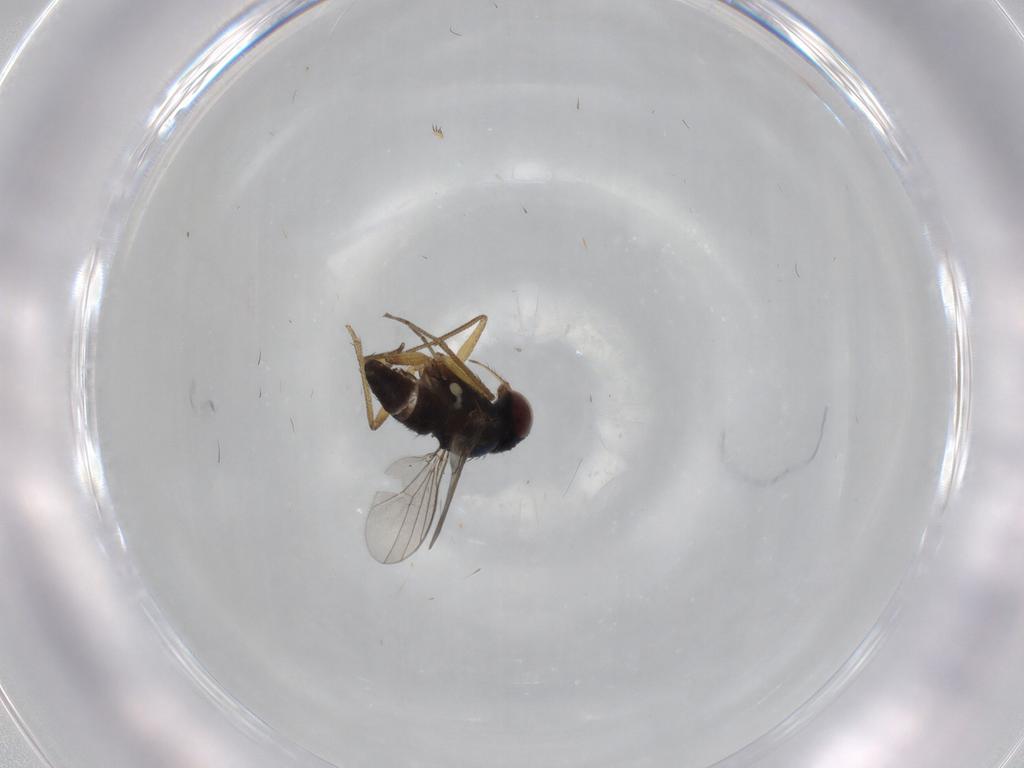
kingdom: Animalia
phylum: Arthropoda
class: Insecta
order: Diptera
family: Dolichopodidae
